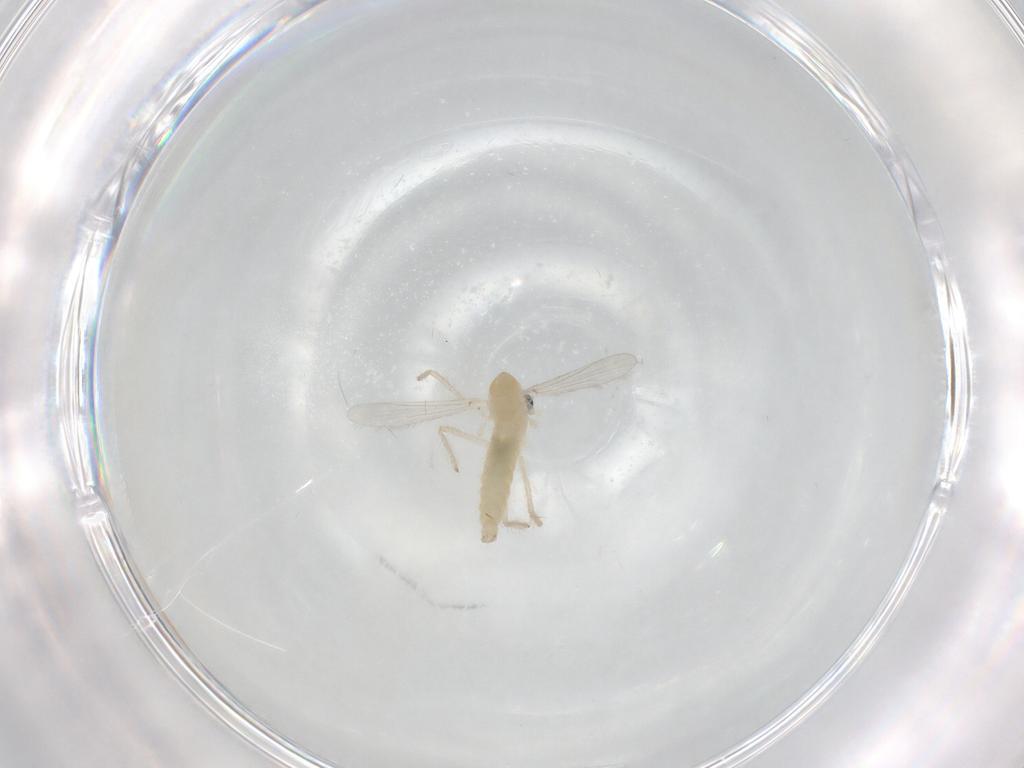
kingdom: Animalia
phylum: Arthropoda
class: Insecta
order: Diptera
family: Chironomidae
